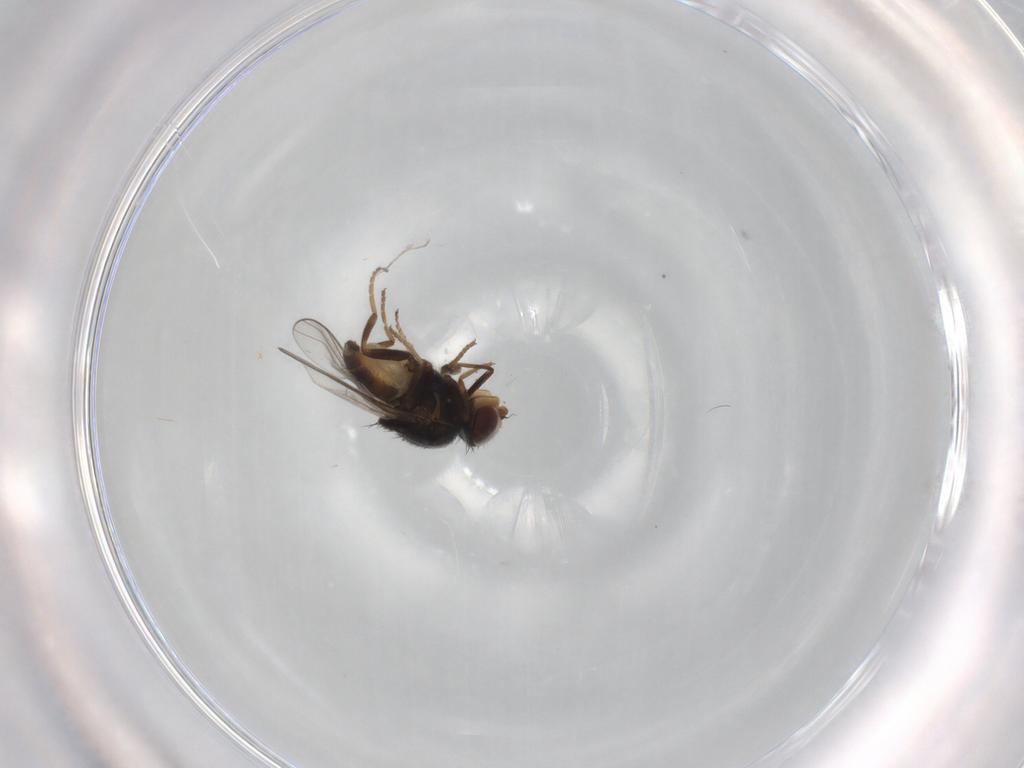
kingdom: Animalia
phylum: Arthropoda
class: Insecta
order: Diptera
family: Chloropidae
